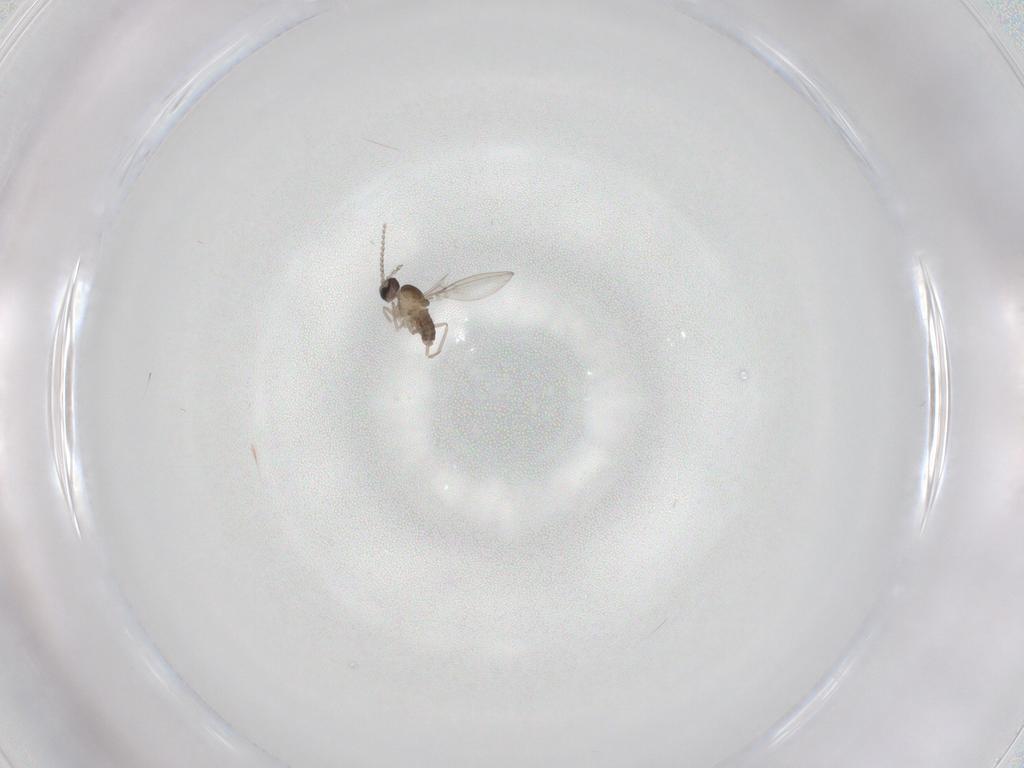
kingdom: Animalia
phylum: Arthropoda
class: Insecta
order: Diptera
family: Cecidomyiidae
